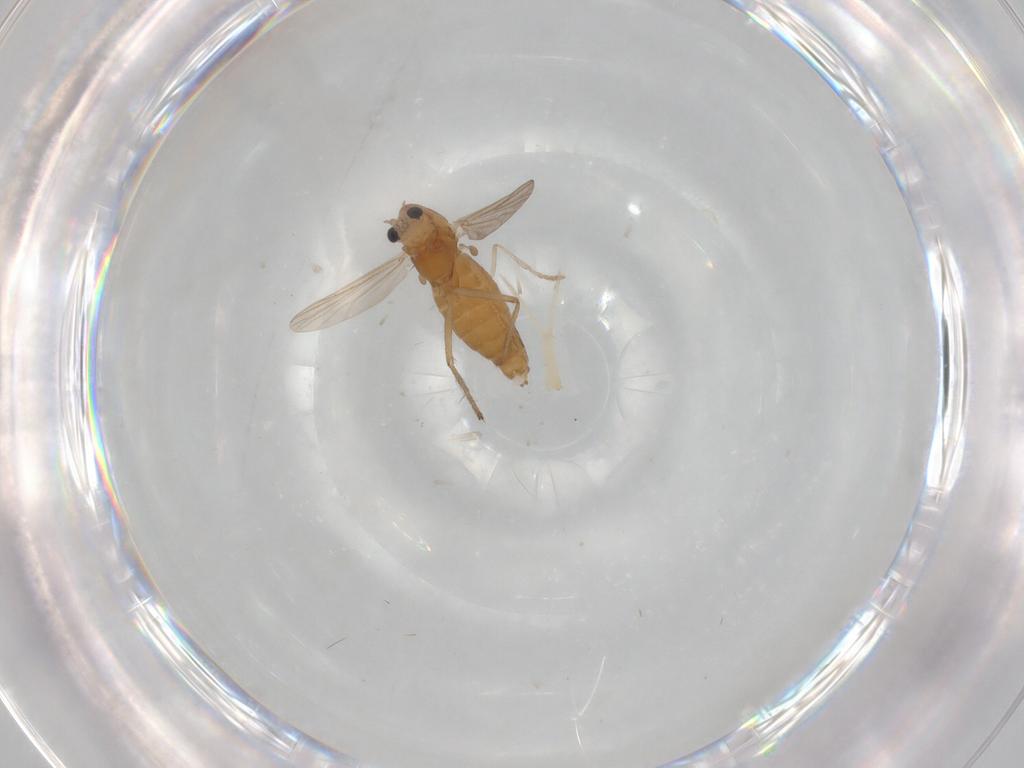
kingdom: Animalia
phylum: Arthropoda
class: Insecta
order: Diptera
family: Chironomidae
